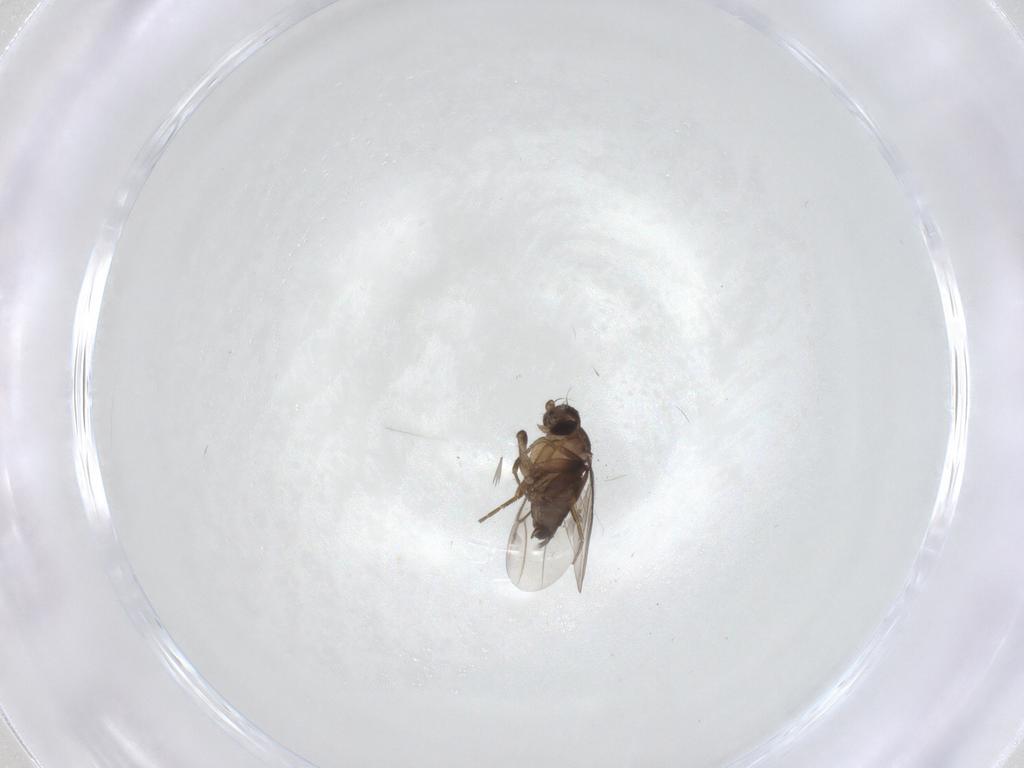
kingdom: Animalia
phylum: Arthropoda
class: Insecta
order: Diptera
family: Phoridae
